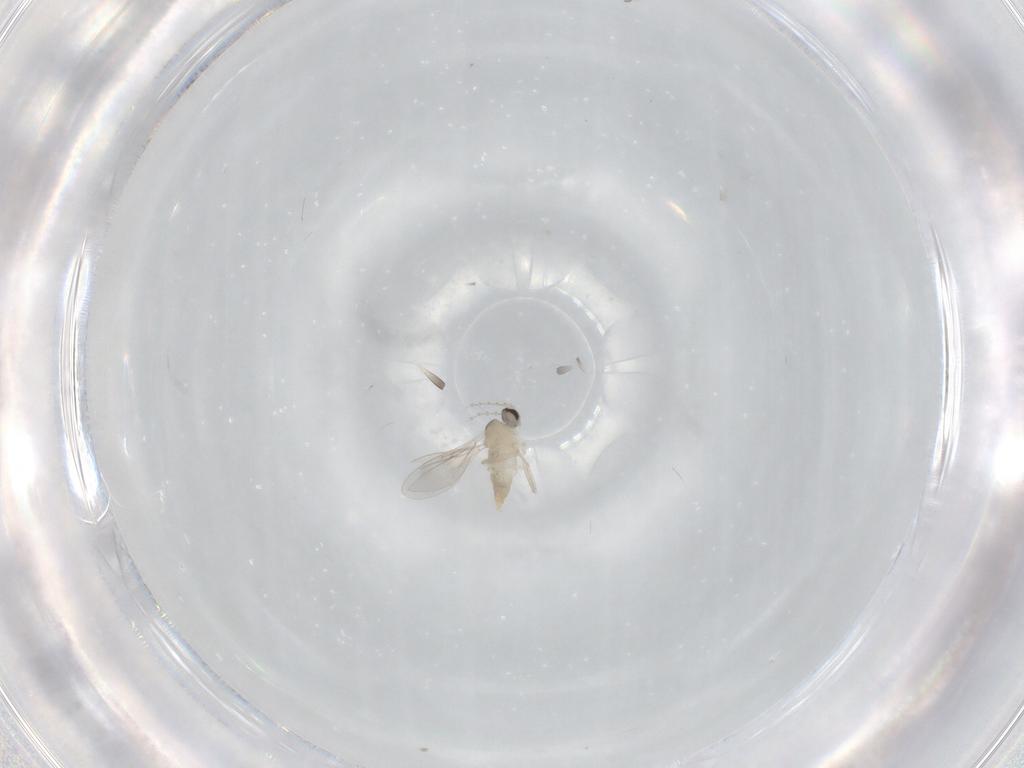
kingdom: Animalia
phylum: Arthropoda
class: Insecta
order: Diptera
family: Cecidomyiidae
